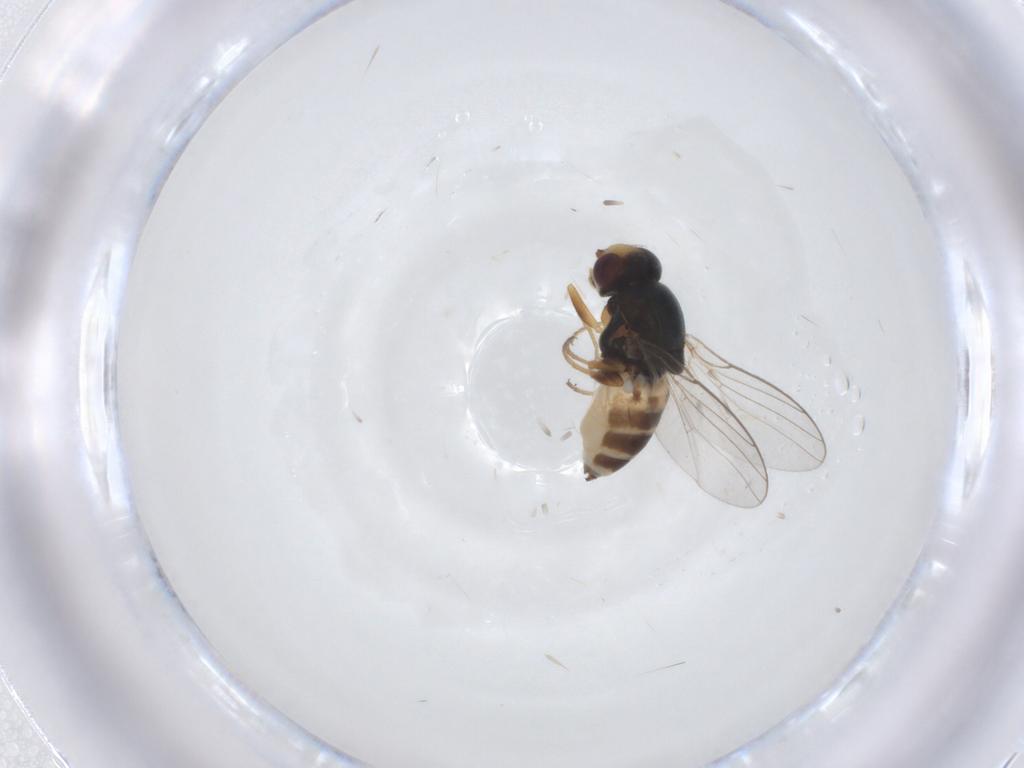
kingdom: Animalia
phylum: Arthropoda
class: Insecta
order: Diptera
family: Chloropidae
